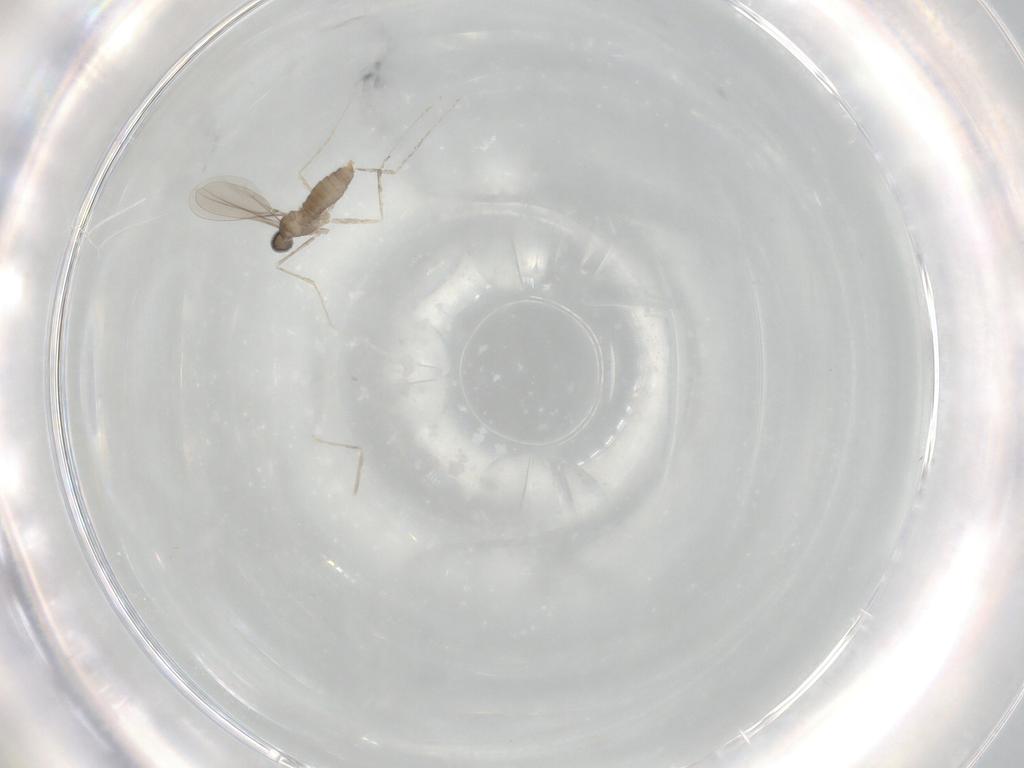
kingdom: Animalia
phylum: Arthropoda
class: Insecta
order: Diptera
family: Cecidomyiidae
